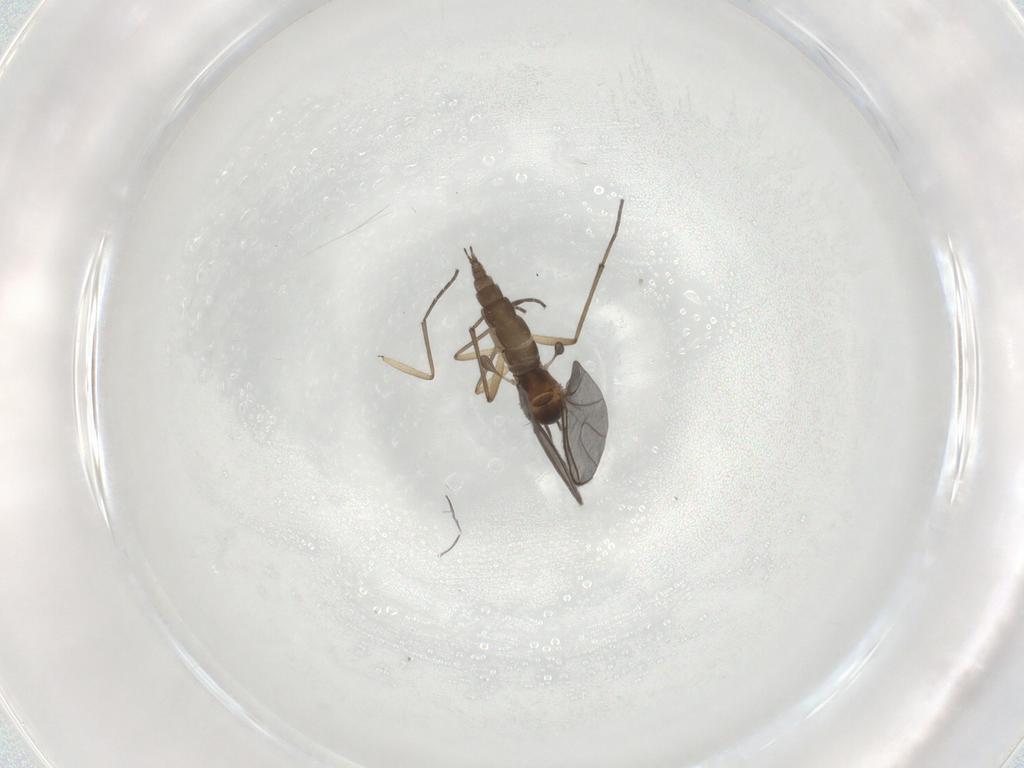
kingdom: Animalia
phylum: Arthropoda
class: Insecta
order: Diptera
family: Sciaridae
